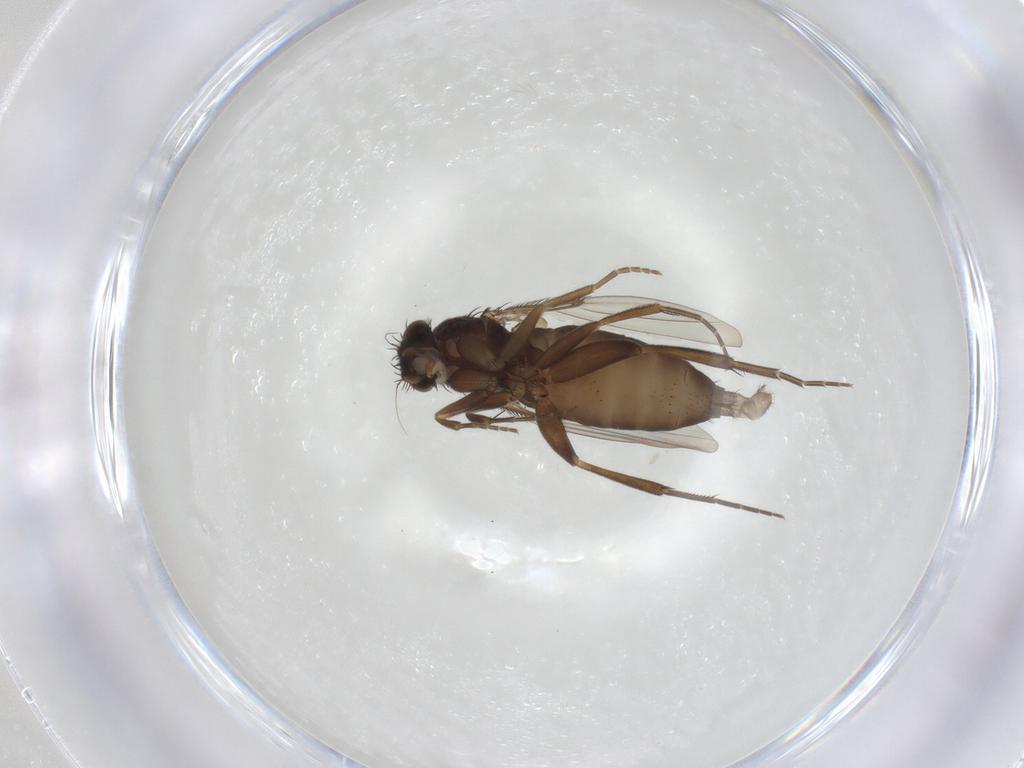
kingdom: Animalia
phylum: Arthropoda
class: Insecta
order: Diptera
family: Phoridae
